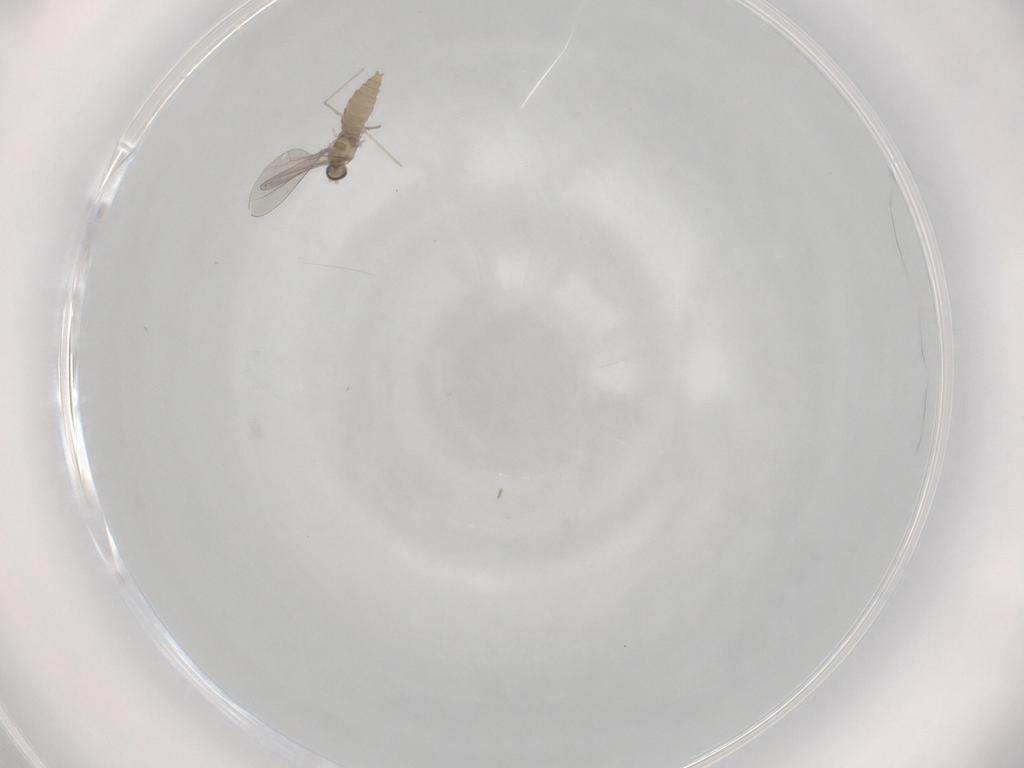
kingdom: Animalia
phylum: Arthropoda
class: Insecta
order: Diptera
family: Cecidomyiidae
